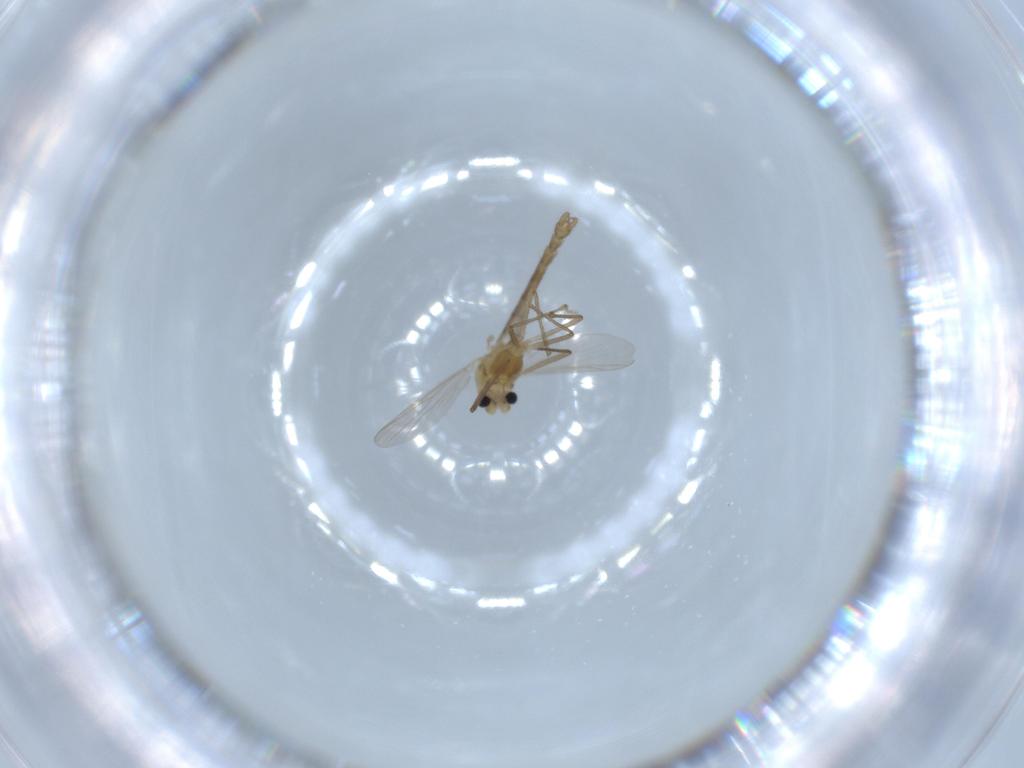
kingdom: Animalia
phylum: Arthropoda
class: Insecta
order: Diptera
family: Chironomidae
